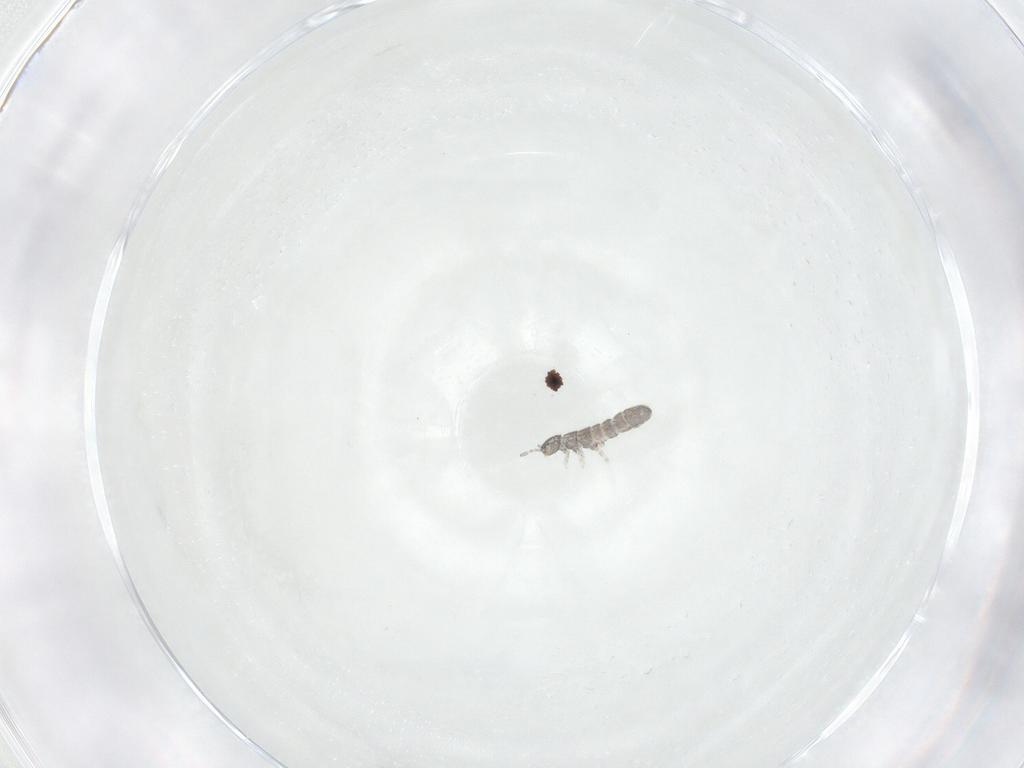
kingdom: Animalia
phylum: Arthropoda
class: Collembola
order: Entomobryomorpha
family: Isotomidae
